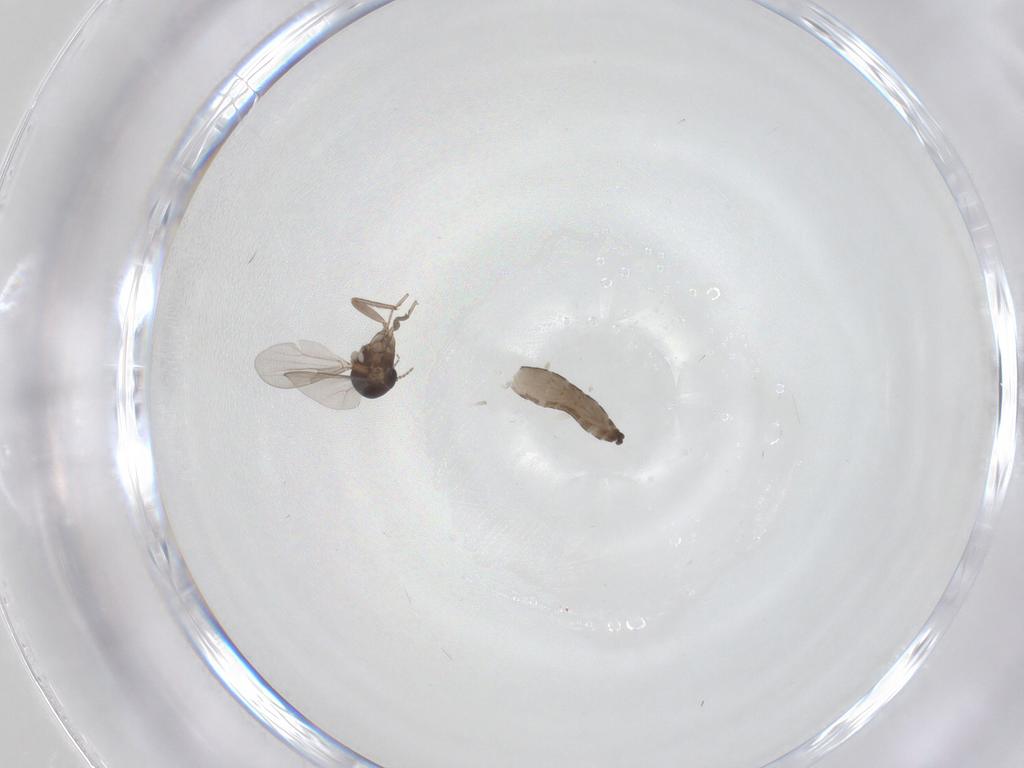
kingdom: Animalia
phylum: Arthropoda
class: Insecta
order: Diptera
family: Ceratopogonidae
